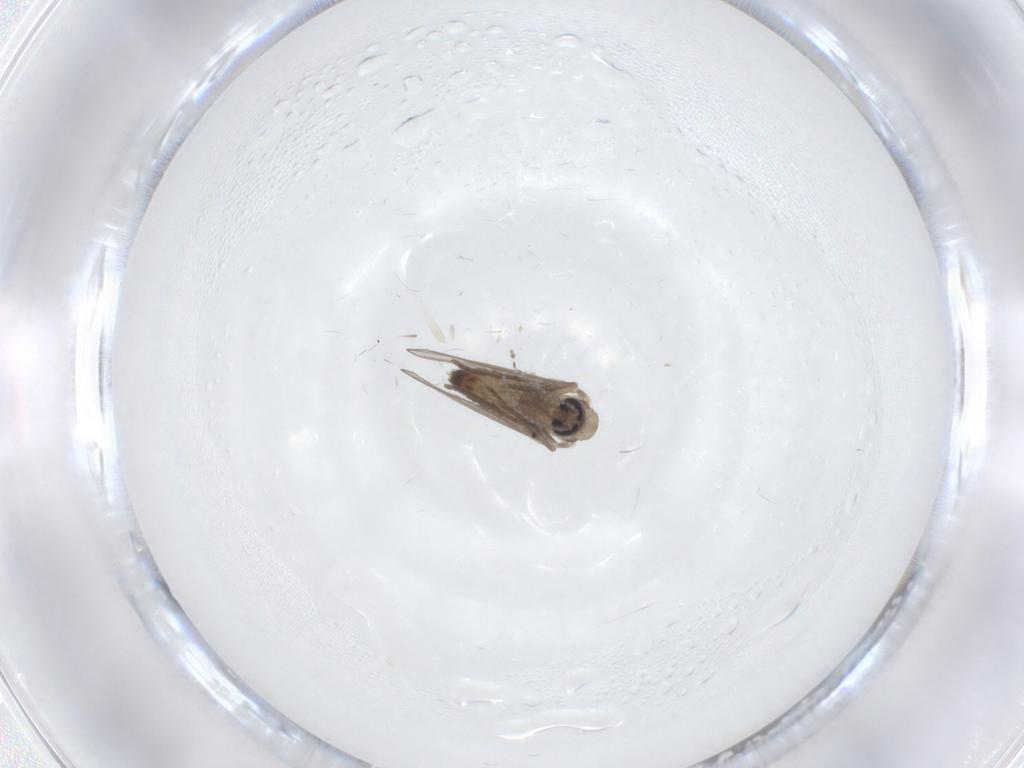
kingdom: Animalia
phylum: Arthropoda
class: Insecta
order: Diptera
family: Psychodidae
